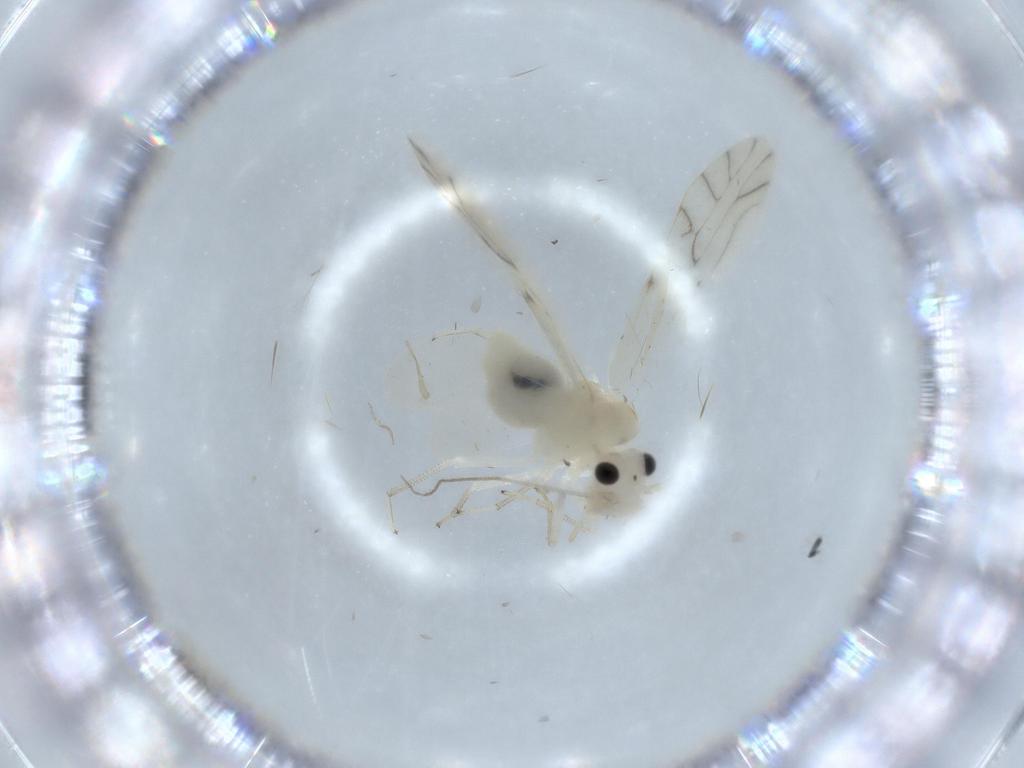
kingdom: Animalia
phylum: Arthropoda
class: Insecta
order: Psocodea
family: Caeciliusidae
